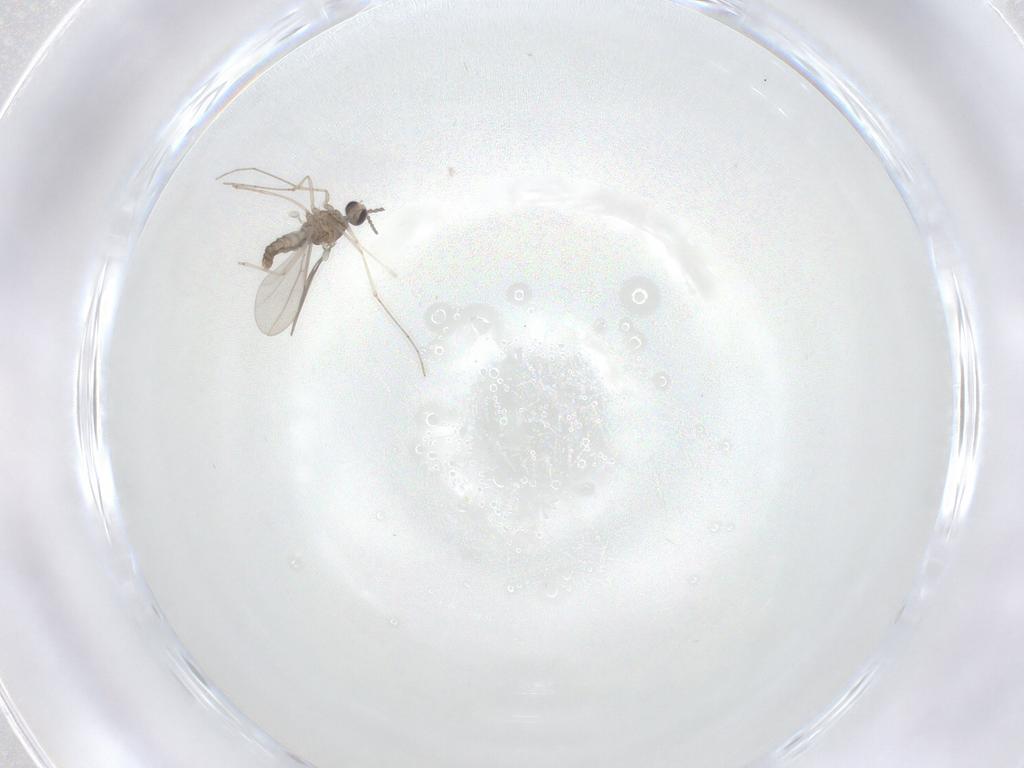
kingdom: Animalia
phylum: Arthropoda
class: Insecta
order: Diptera
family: Cecidomyiidae
